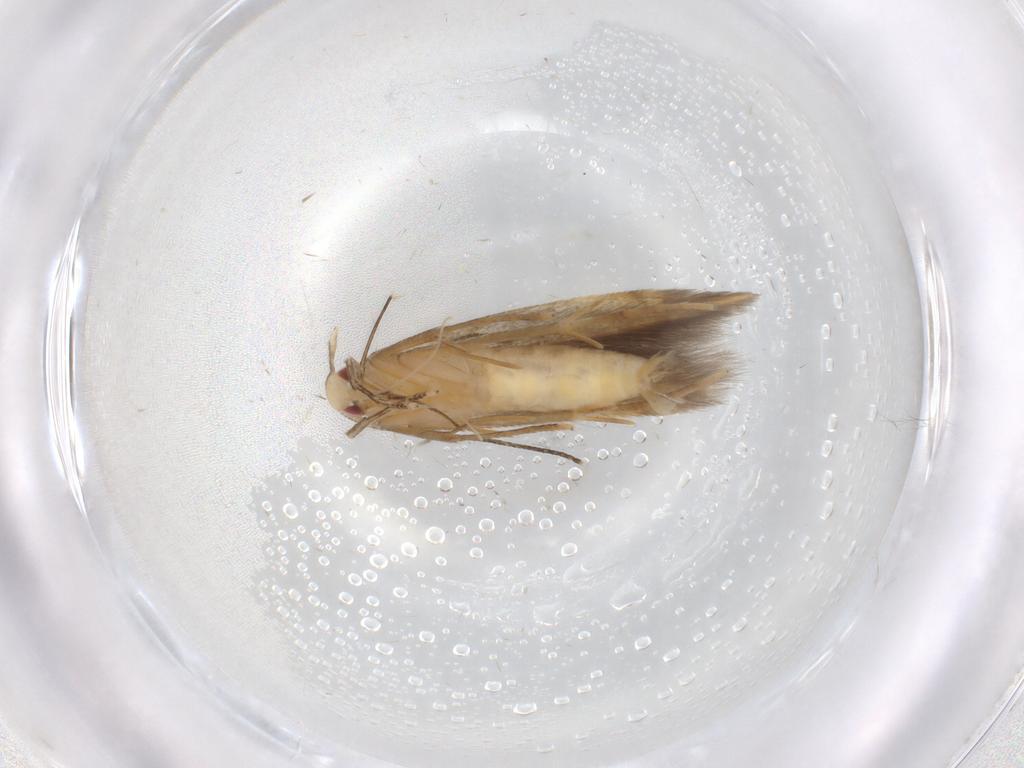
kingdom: Animalia
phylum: Arthropoda
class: Insecta
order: Lepidoptera
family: Gelechiidae
